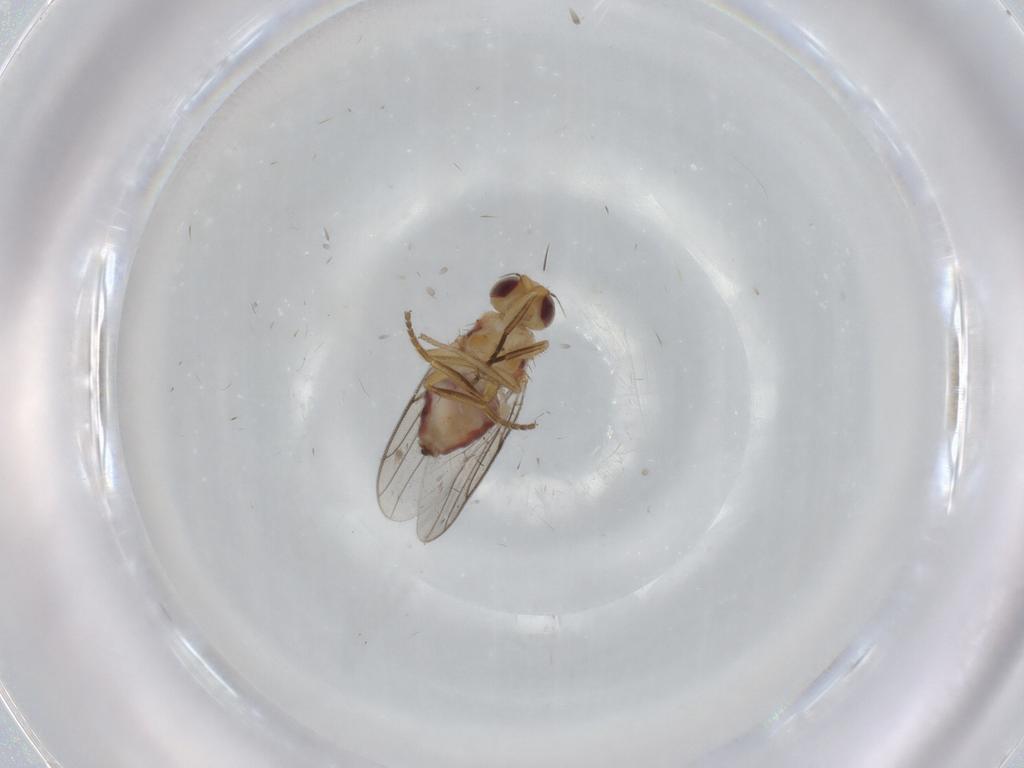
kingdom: Animalia
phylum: Arthropoda
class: Insecta
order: Diptera
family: Chloropidae
